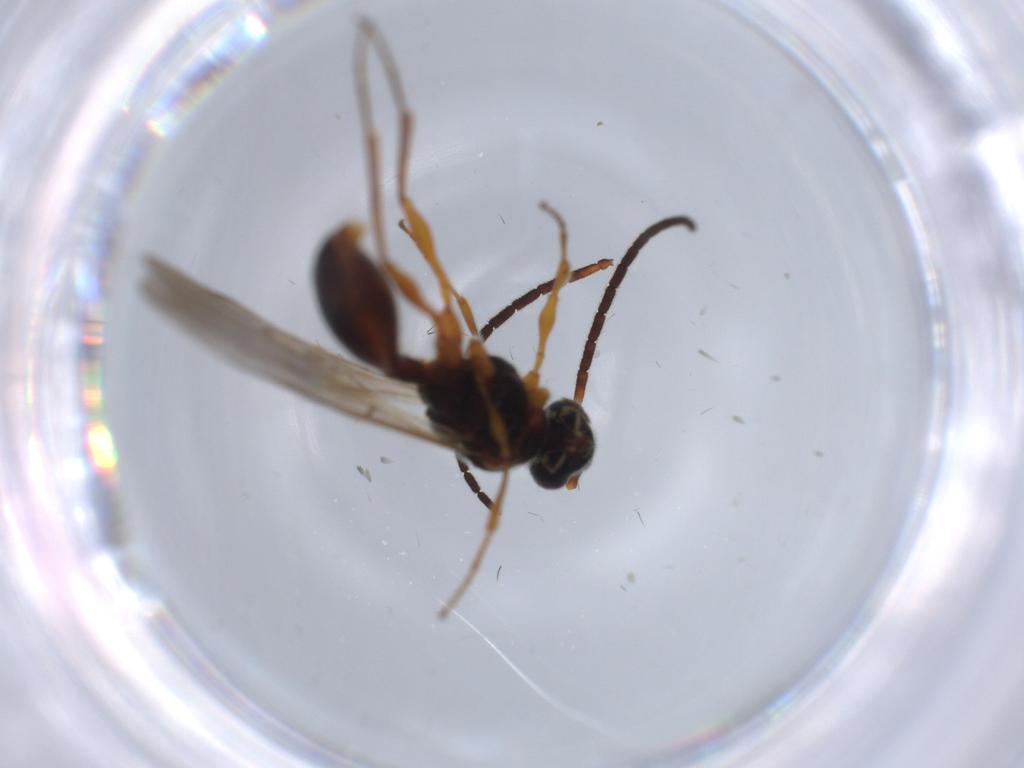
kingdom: Animalia
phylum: Arthropoda
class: Insecta
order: Hymenoptera
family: Diapriidae
